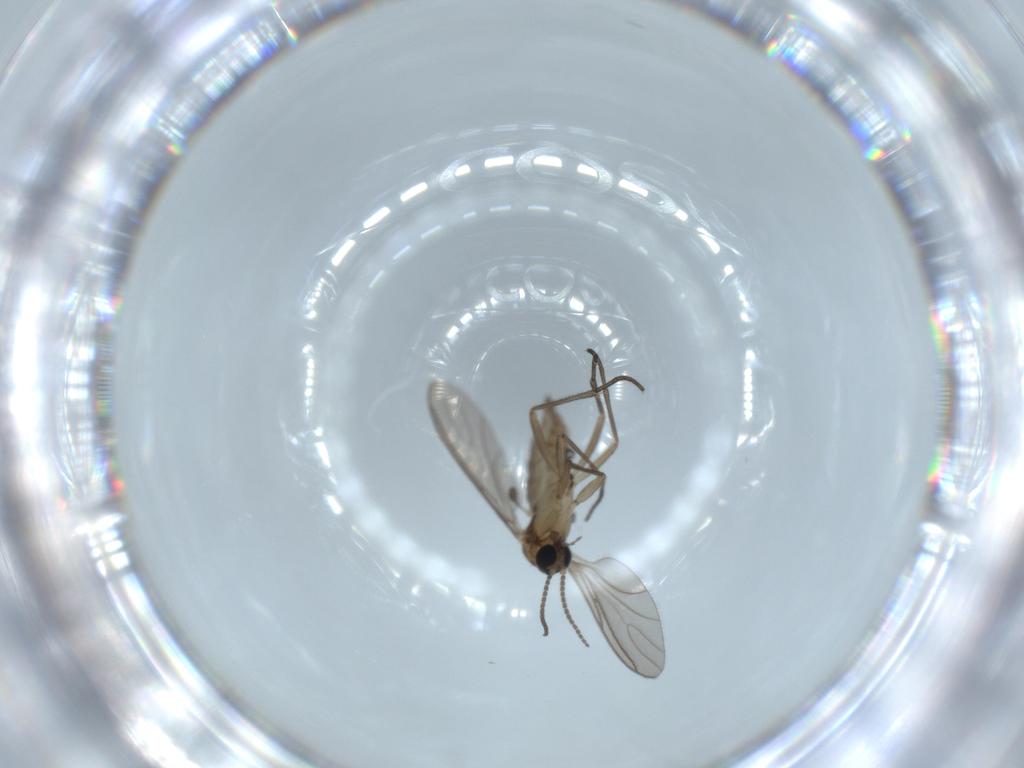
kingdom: Animalia
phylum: Arthropoda
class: Insecta
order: Diptera
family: Sciaridae
